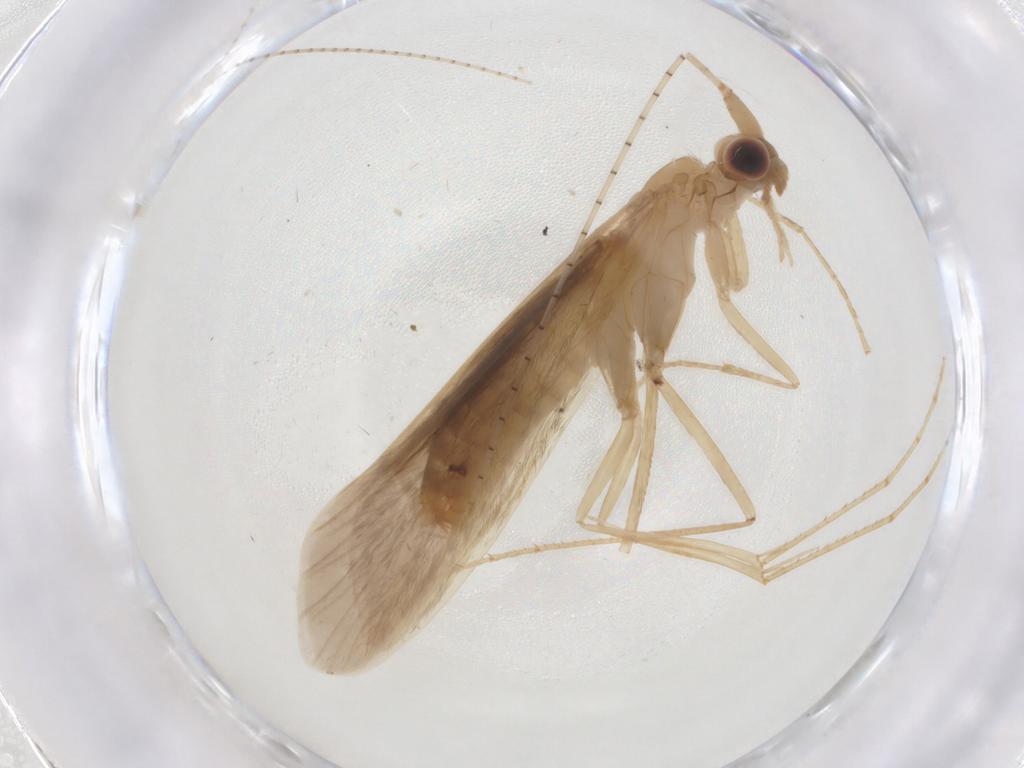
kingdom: Animalia
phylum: Arthropoda
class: Insecta
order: Trichoptera
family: Leptoceridae
